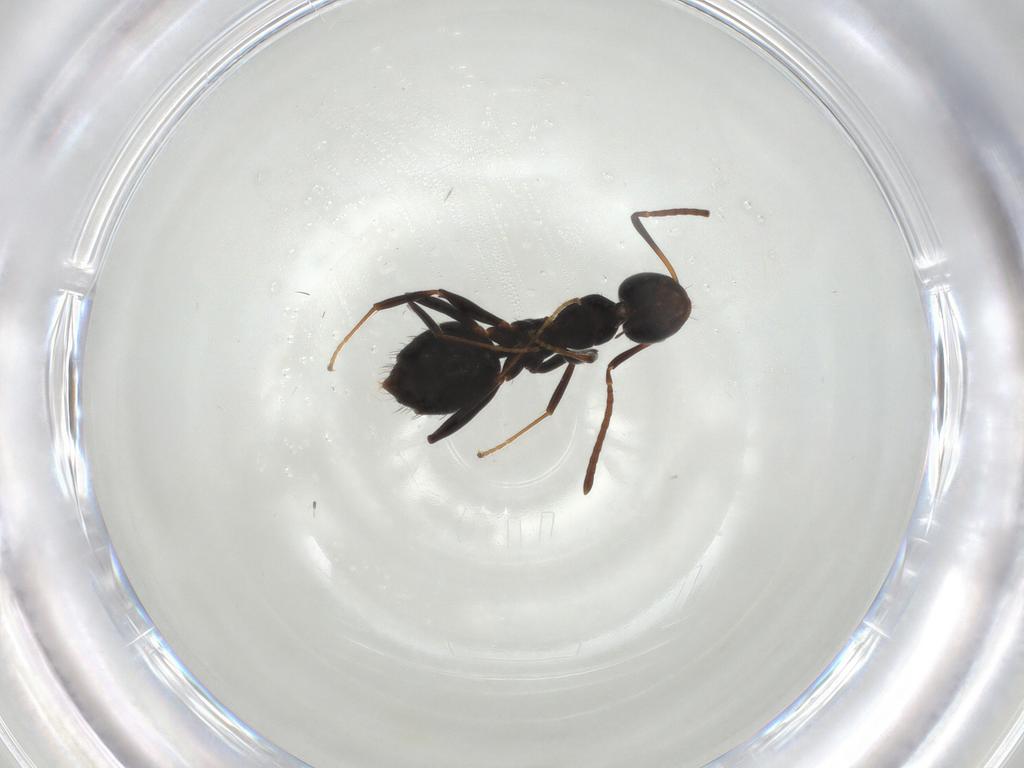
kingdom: Animalia
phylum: Arthropoda
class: Insecta
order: Hymenoptera
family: Formicidae
